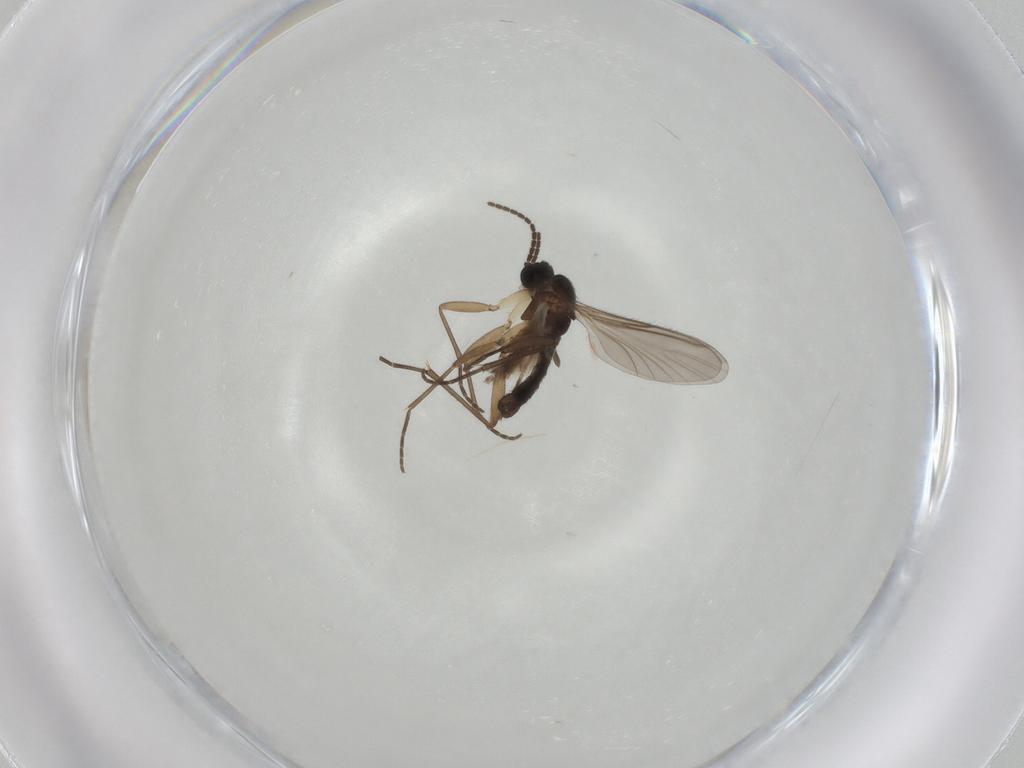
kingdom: Animalia
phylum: Arthropoda
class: Insecta
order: Diptera
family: Sciaridae
